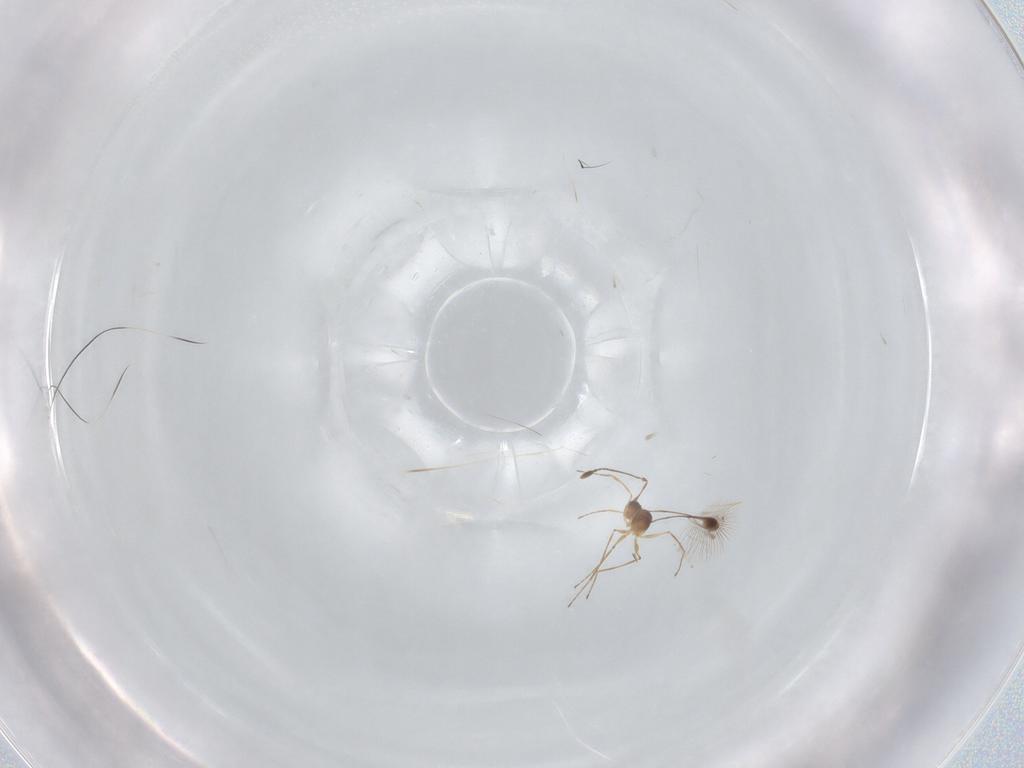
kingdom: Animalia
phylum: Arthropoda
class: Insecta
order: Hymenoptera
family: Mymaridae
